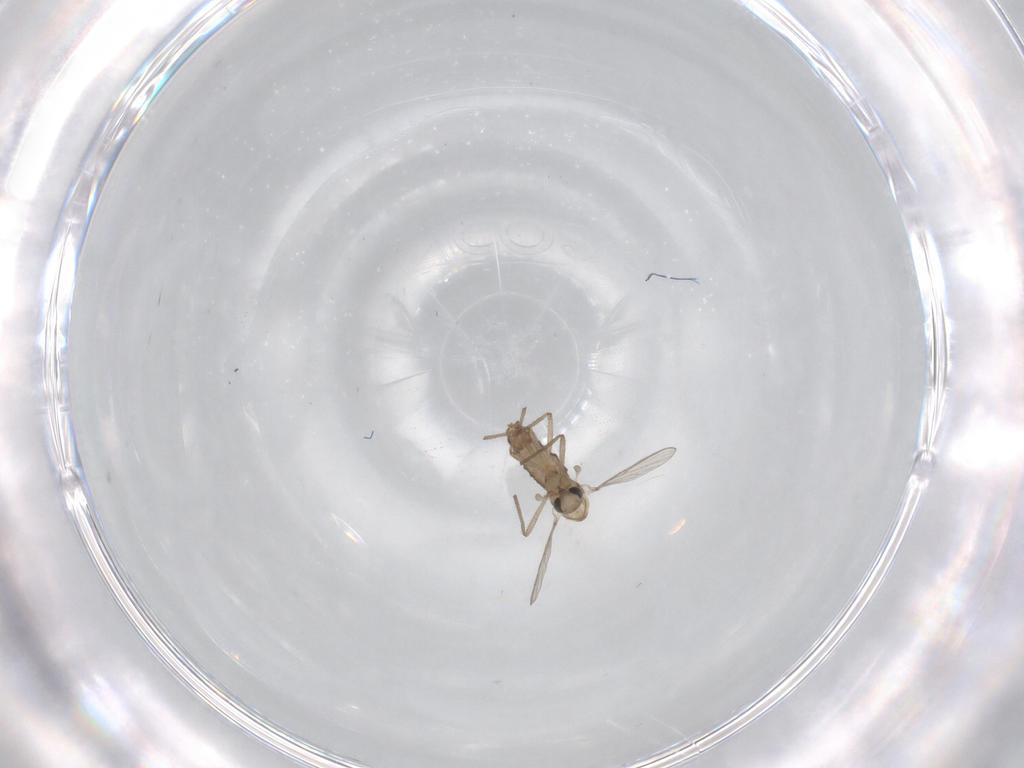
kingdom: Animalia
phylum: Arthropoda
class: Insecta
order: Diptera
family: Chironomidae
